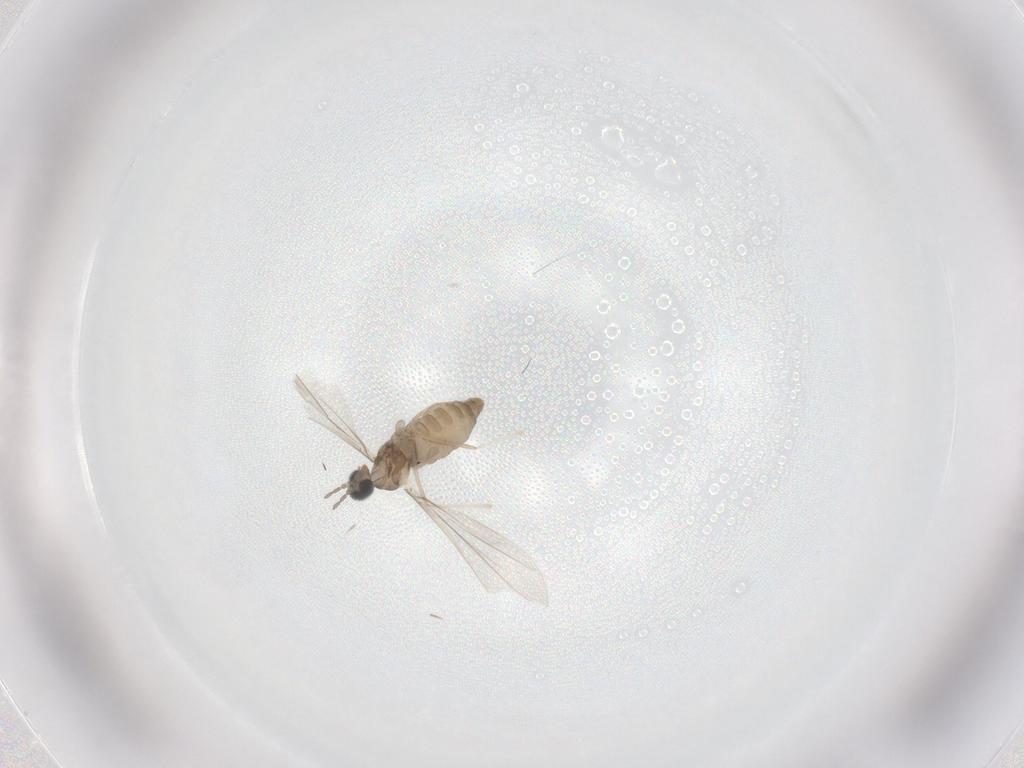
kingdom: Animalia
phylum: Arthropoda
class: Insecta
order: Diptera
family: Cecidomyiidae
